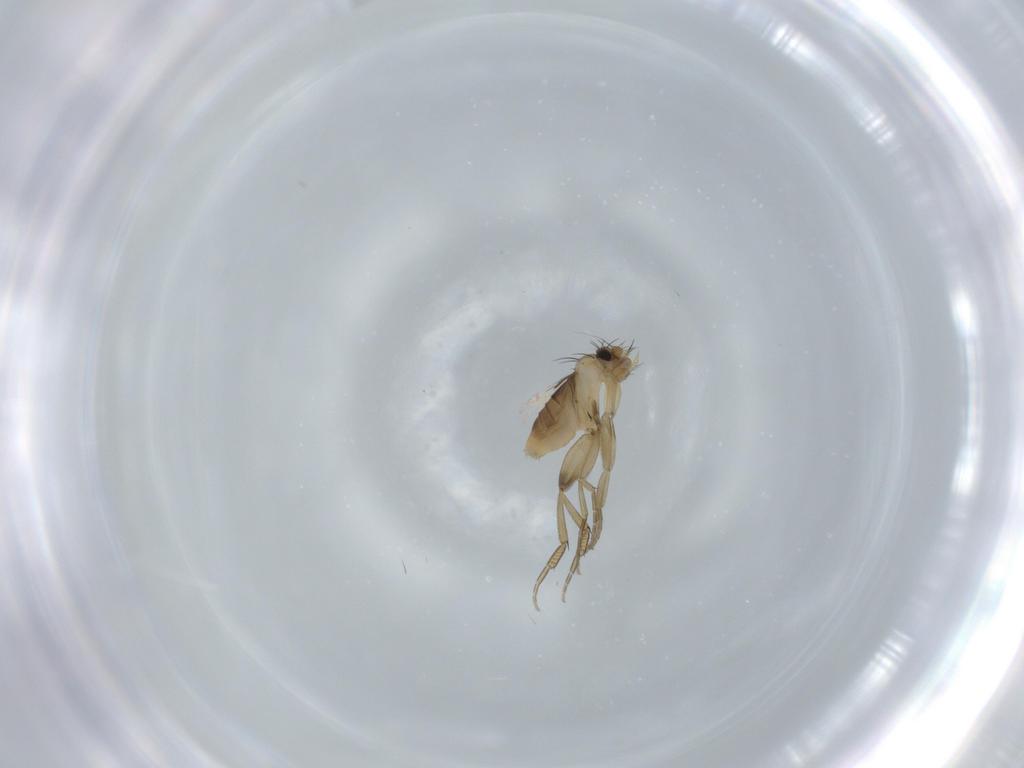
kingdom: Animalia
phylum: Arthropoda
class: Insecta
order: Diptera
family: Phoridae
